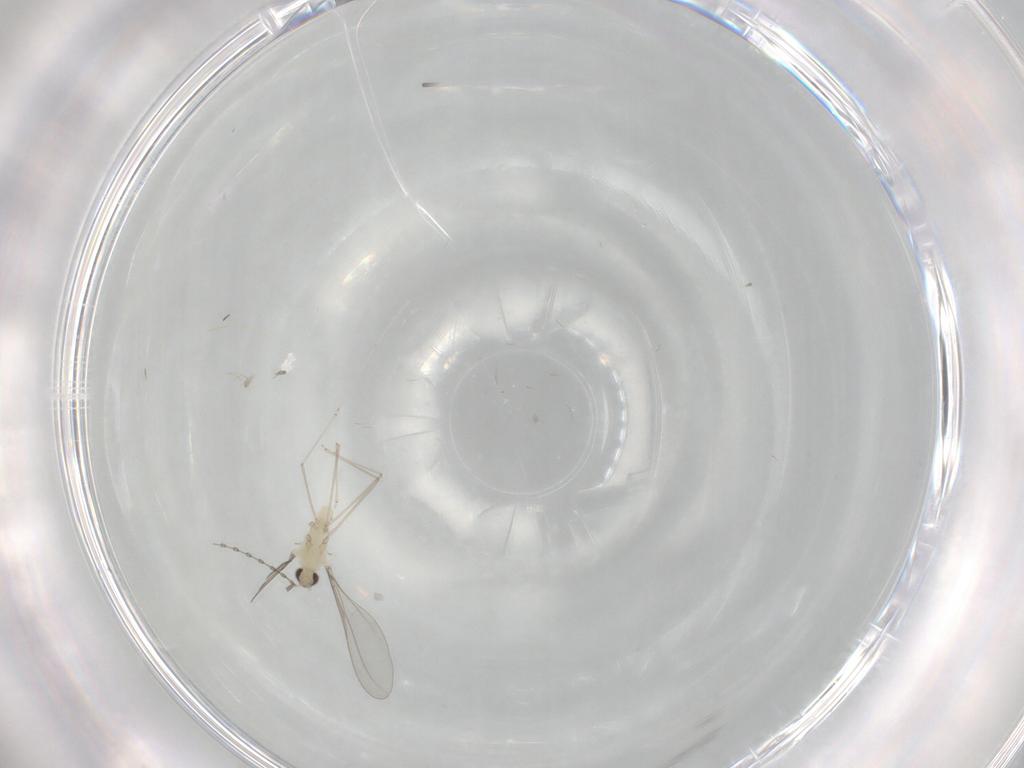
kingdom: Animalia
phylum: Arthropoda
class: Insecta
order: Diptera
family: Cecidomyiidae
